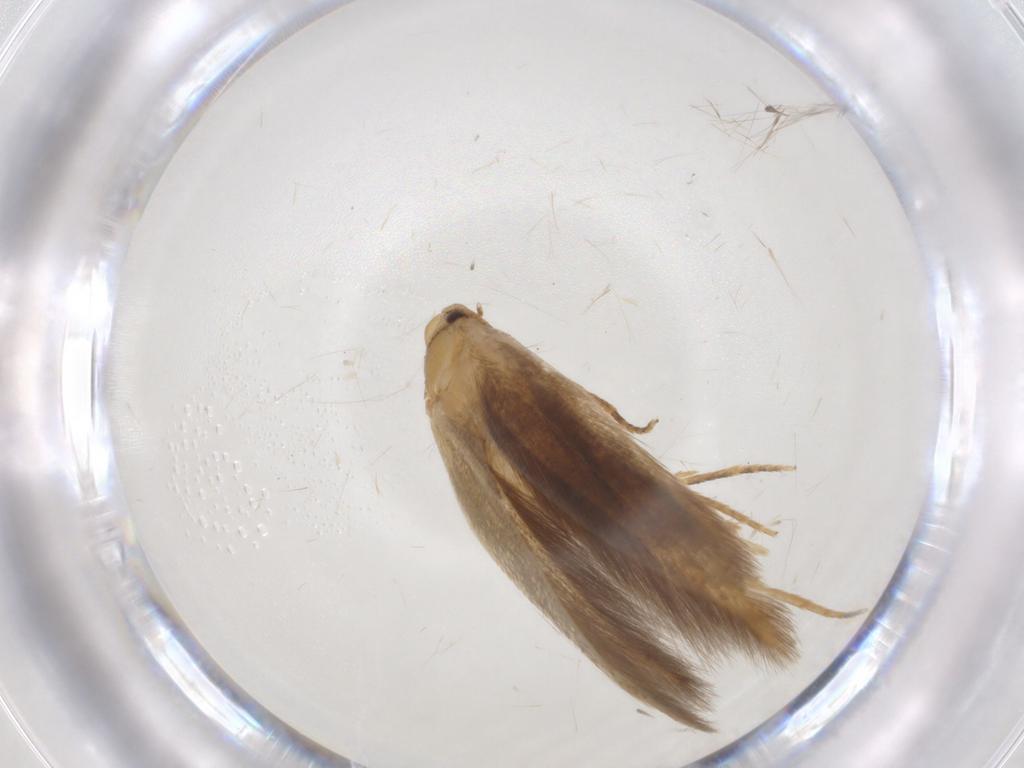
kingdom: Animalia
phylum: Arthropoda
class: Insecta
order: Lepidoptera
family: Tineidae
